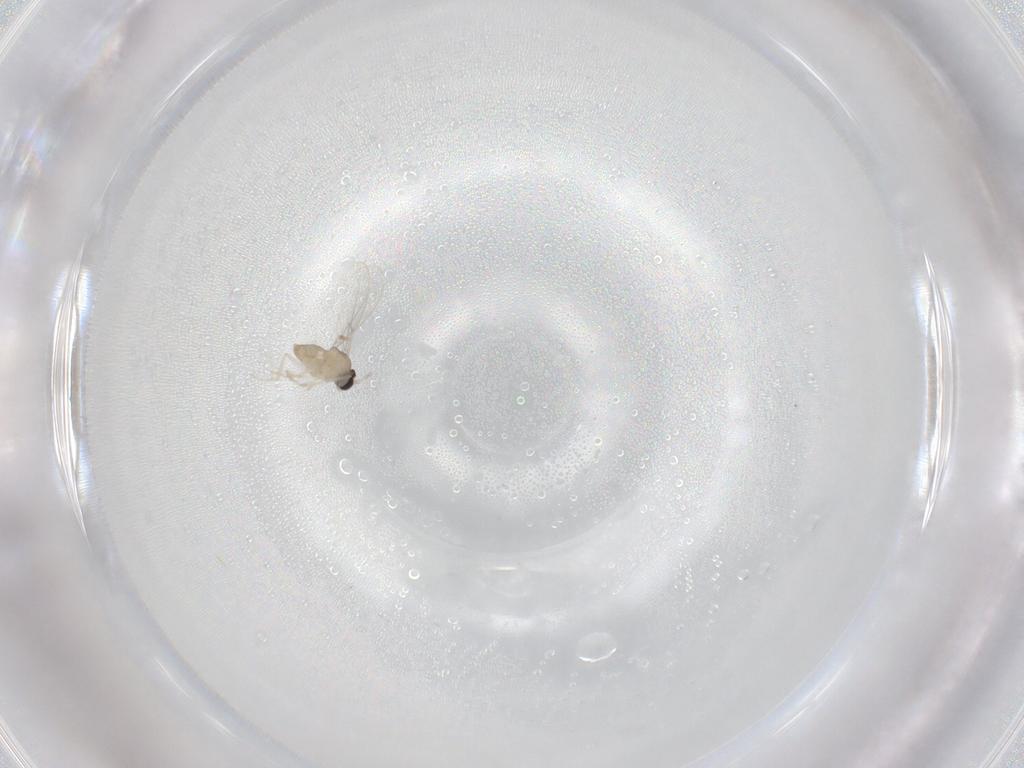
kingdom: Animalia
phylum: Arthropoda
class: Insecta
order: Diptera
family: Cecidomyiidae
